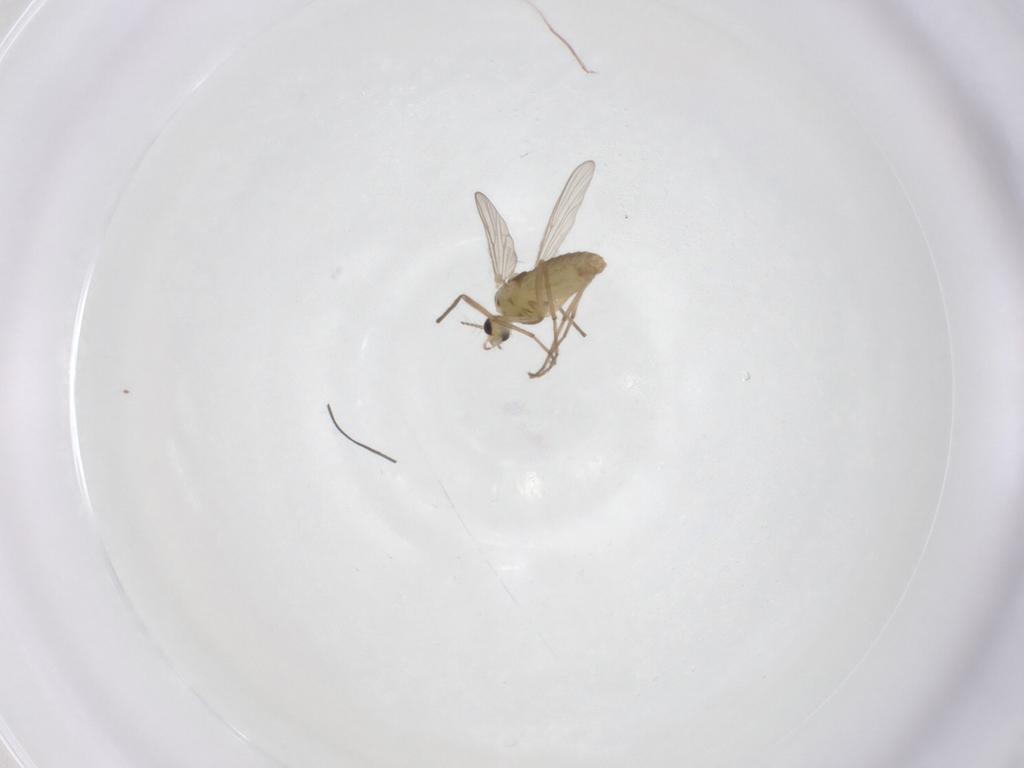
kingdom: Animalia
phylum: Arthropoda
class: Insecta
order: Diptera
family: Chironomidae
